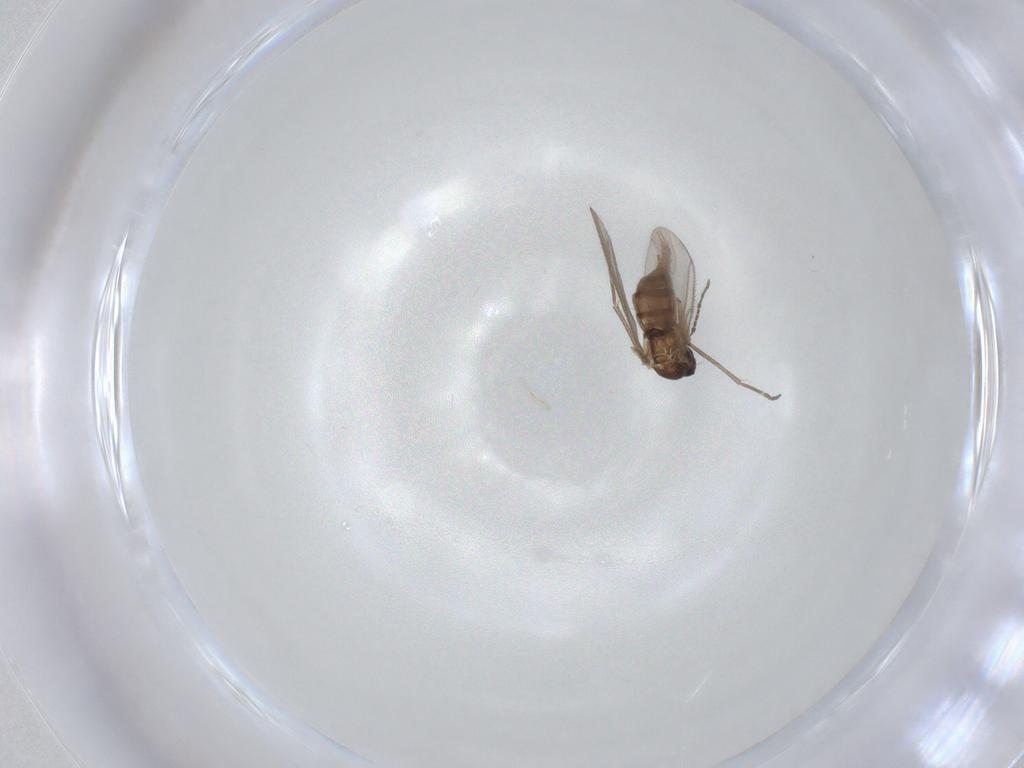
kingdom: Animalia
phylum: Arthropoda
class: Insecta
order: Diptera
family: Sciaridae
